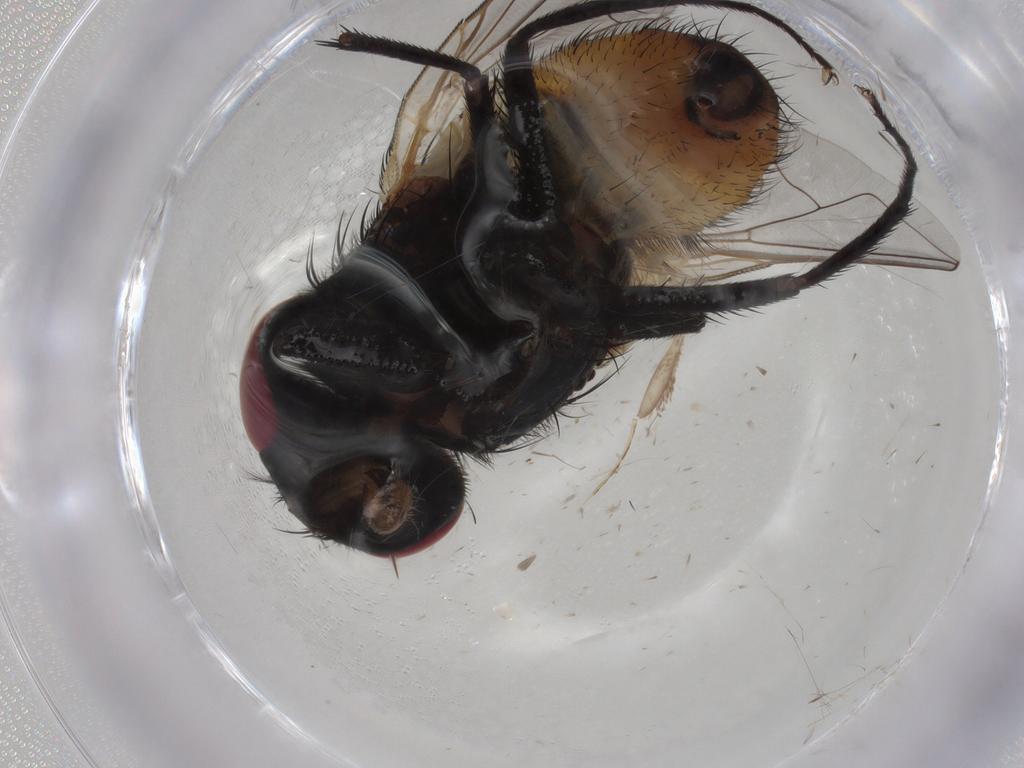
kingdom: Animalia
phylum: Arthropoda
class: Insecta
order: Diptera
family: Muscidae
